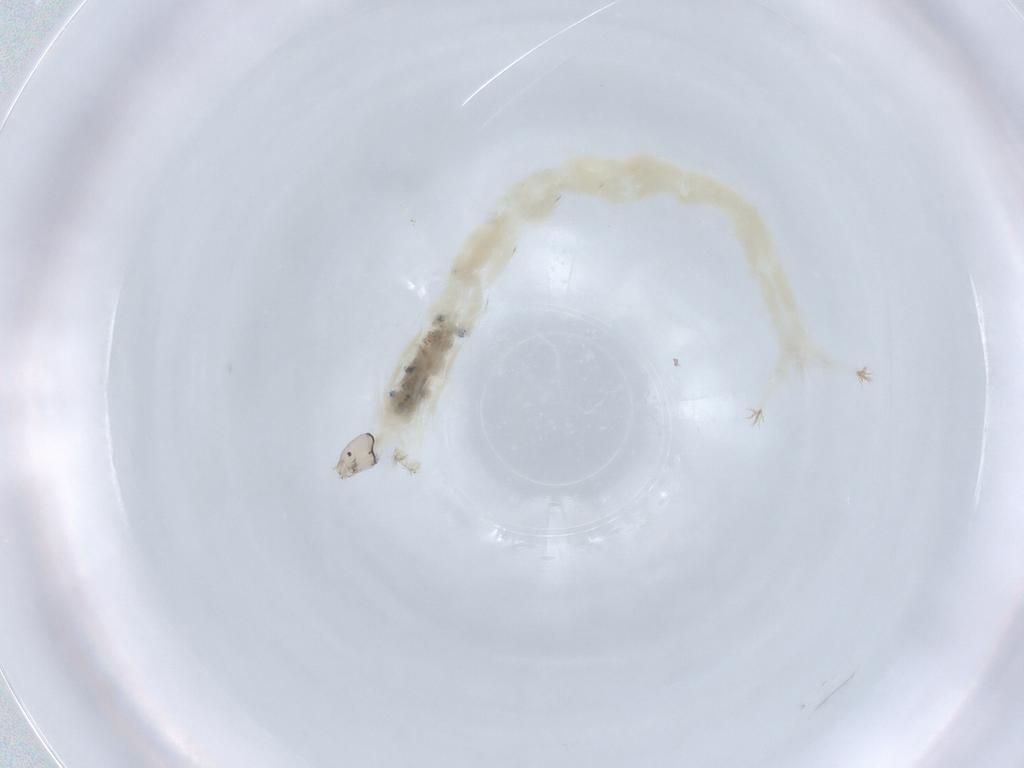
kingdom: Animalia
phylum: Arthropoda
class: Insecta
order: Diptera
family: Chironomidae
